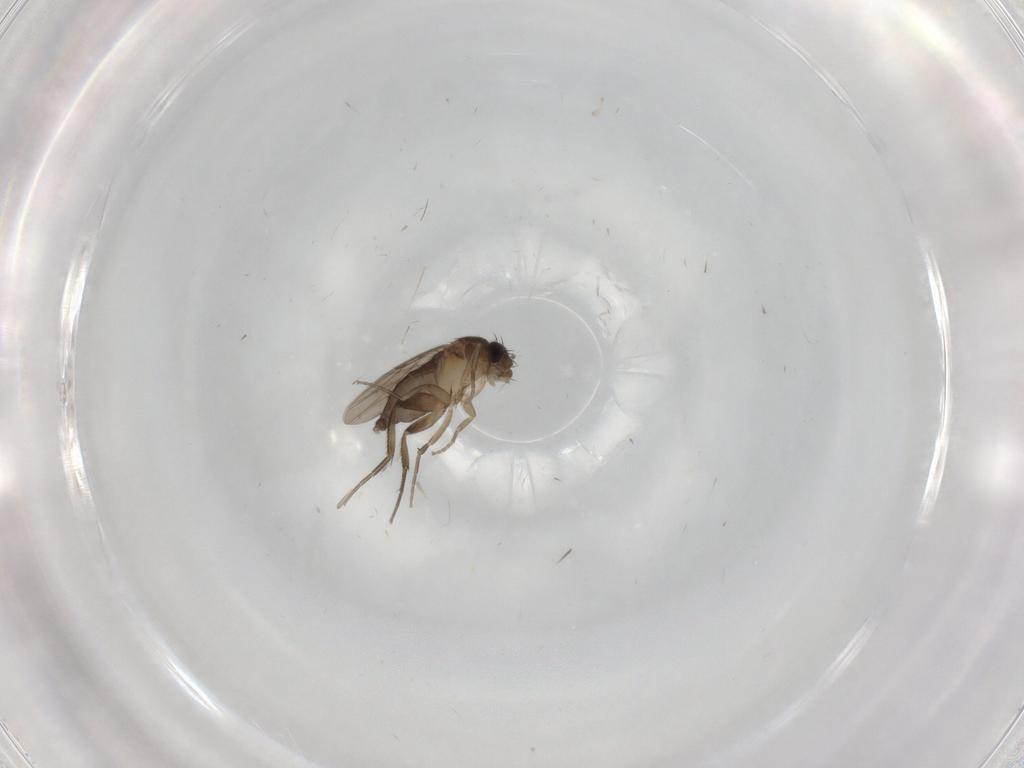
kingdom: Animalia
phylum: Arthropoda
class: Insecta
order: Diptera
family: Phoridae
